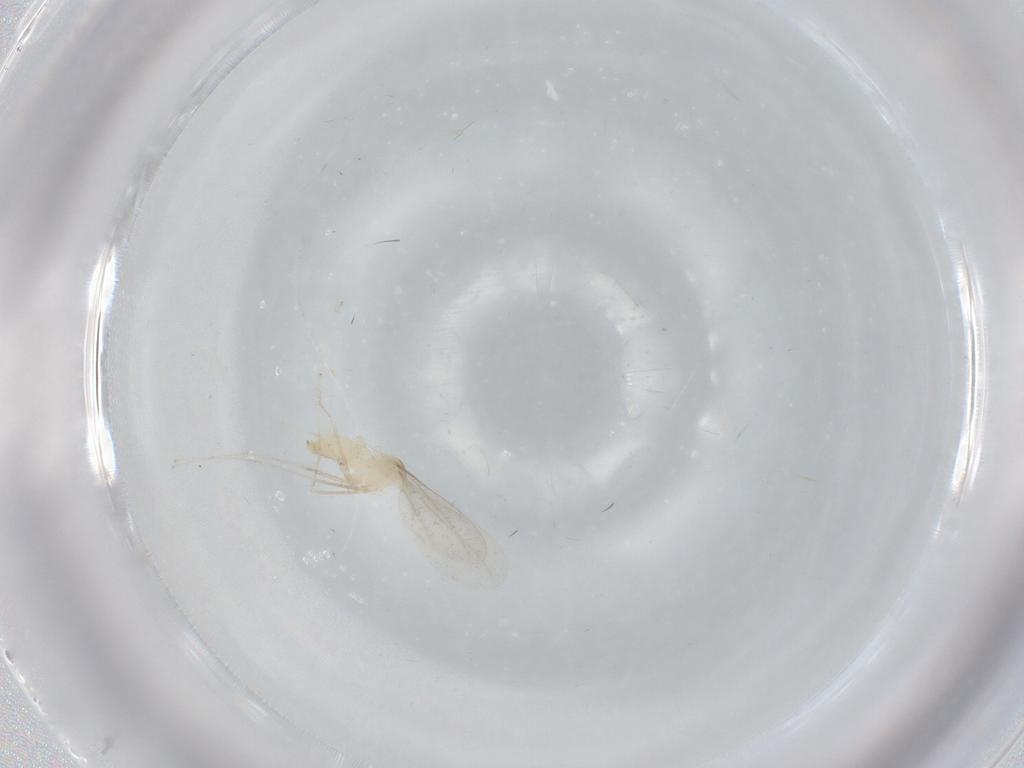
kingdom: Animalia
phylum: Arthropoda
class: Insecta
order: Diptera
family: Cecidomyiidae
